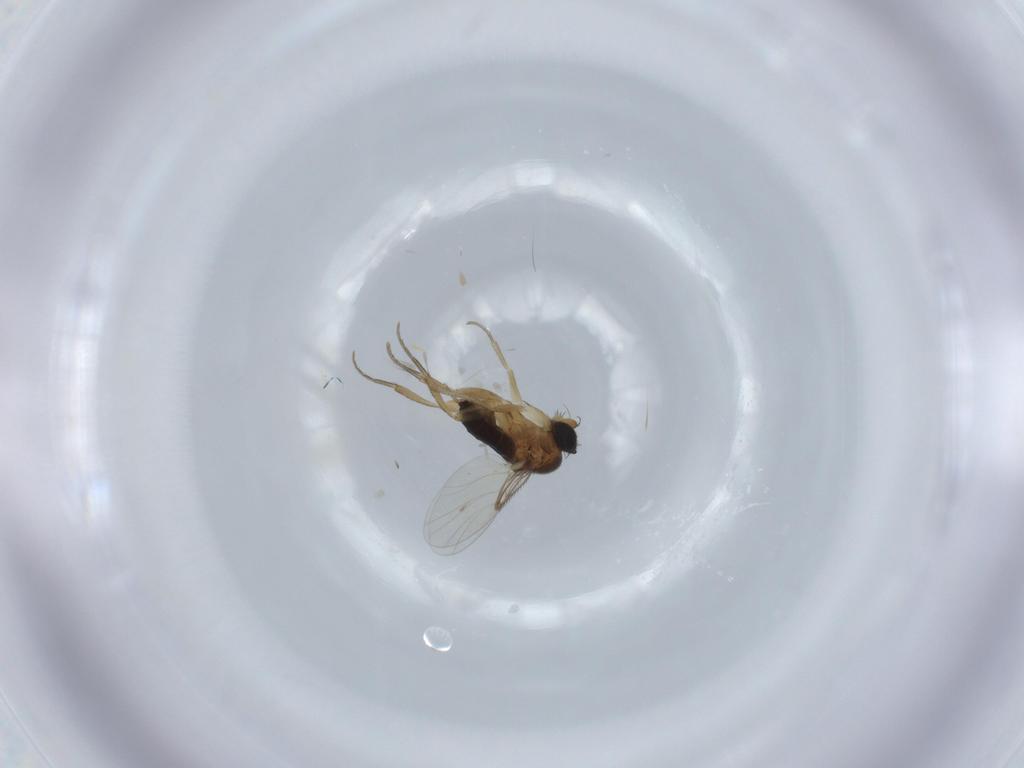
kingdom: Animalia
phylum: Arthropoda
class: Insecta
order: Diptera
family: Phoridae
